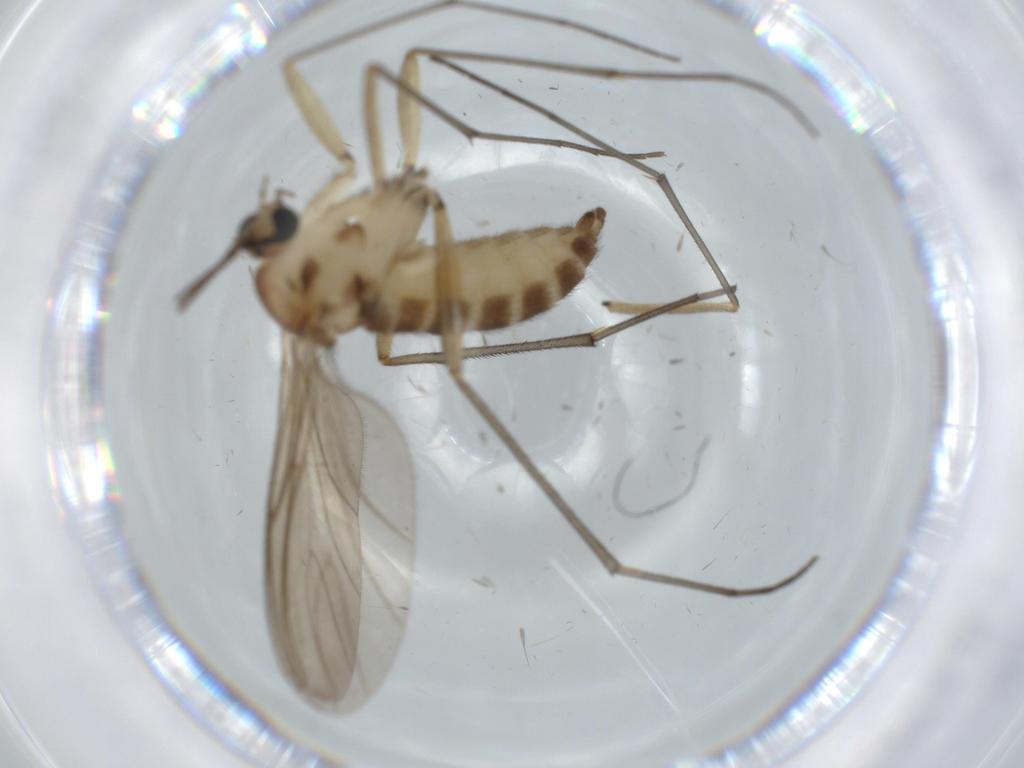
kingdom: Animalia
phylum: Arthropoda
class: Insecta
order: Diptera
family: Sciaridae
